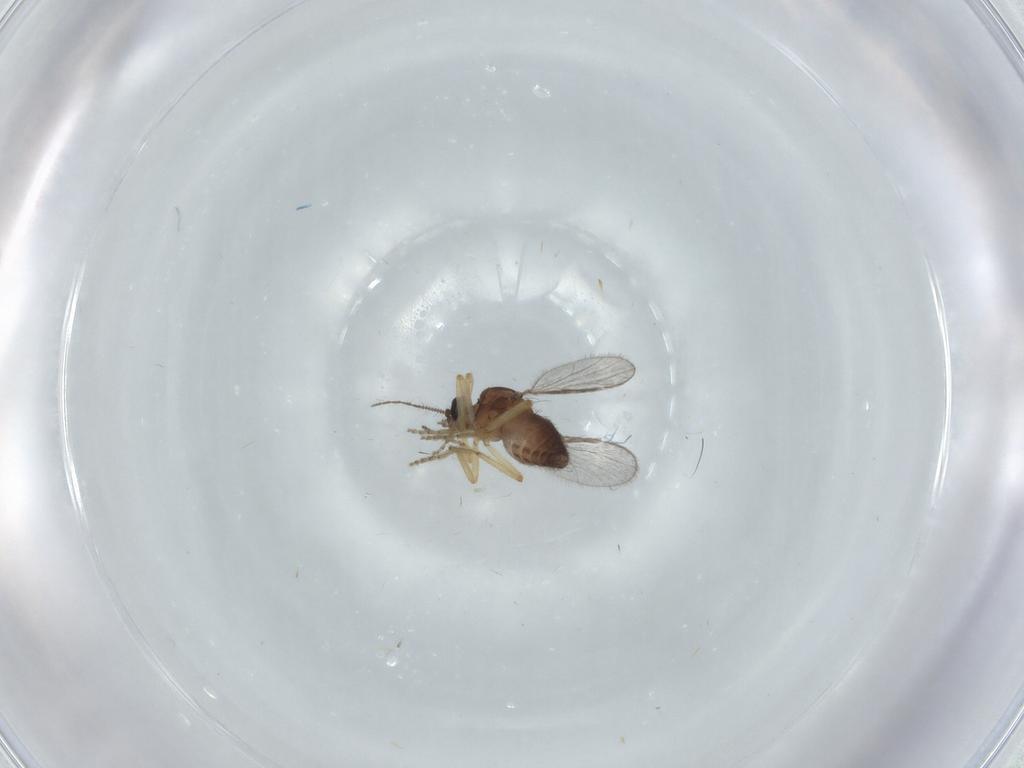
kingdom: Animalia
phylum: Arthropoda
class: Insecta
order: Diptera
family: Ceratopogonidae
